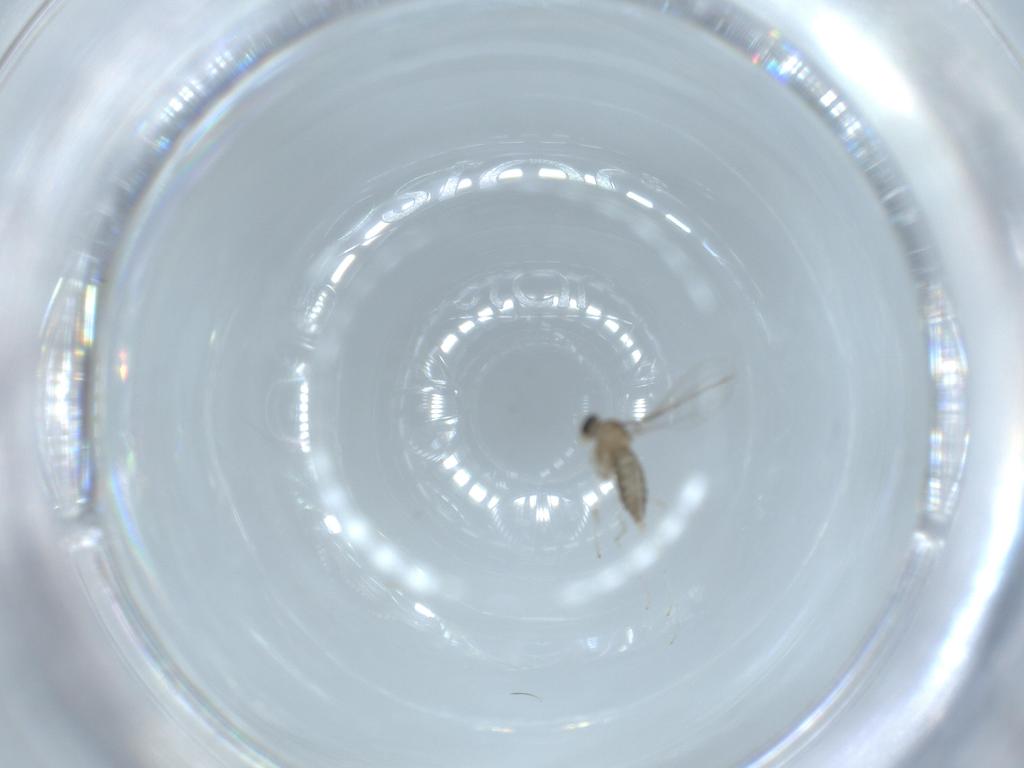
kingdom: Animalia
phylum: Arthropoda
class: Insecta
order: Diptera
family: Cecidomyiidae
